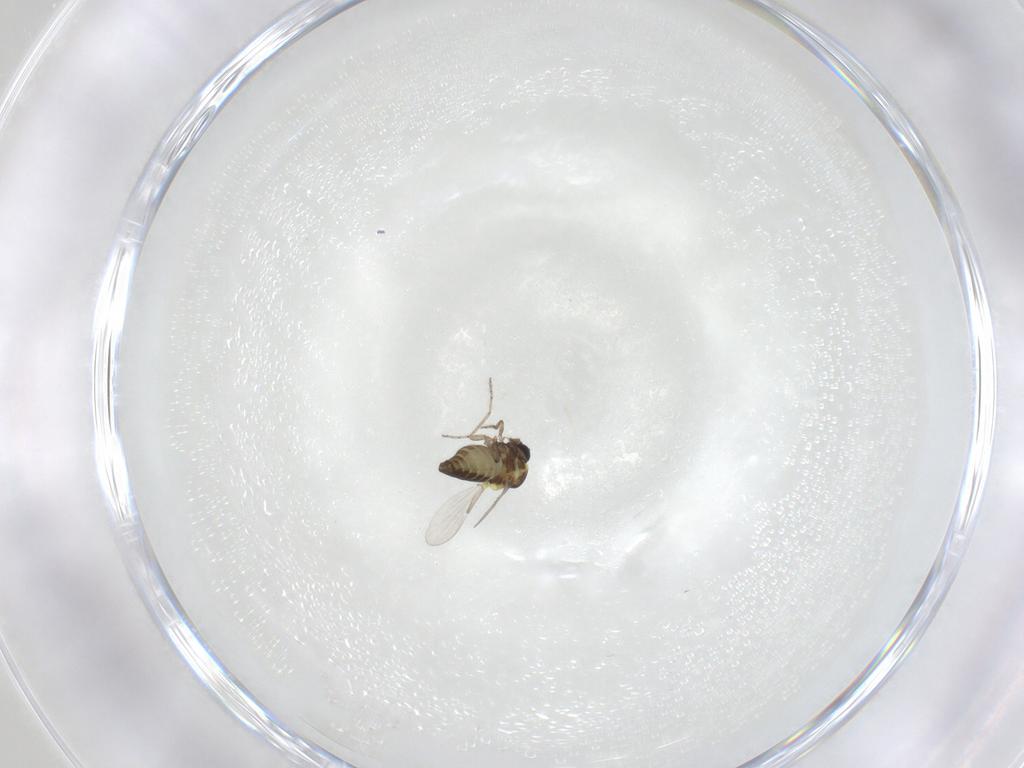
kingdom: Animalia
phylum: Arthropoda
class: Insecta
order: Diptera
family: Ceratopogonidae
